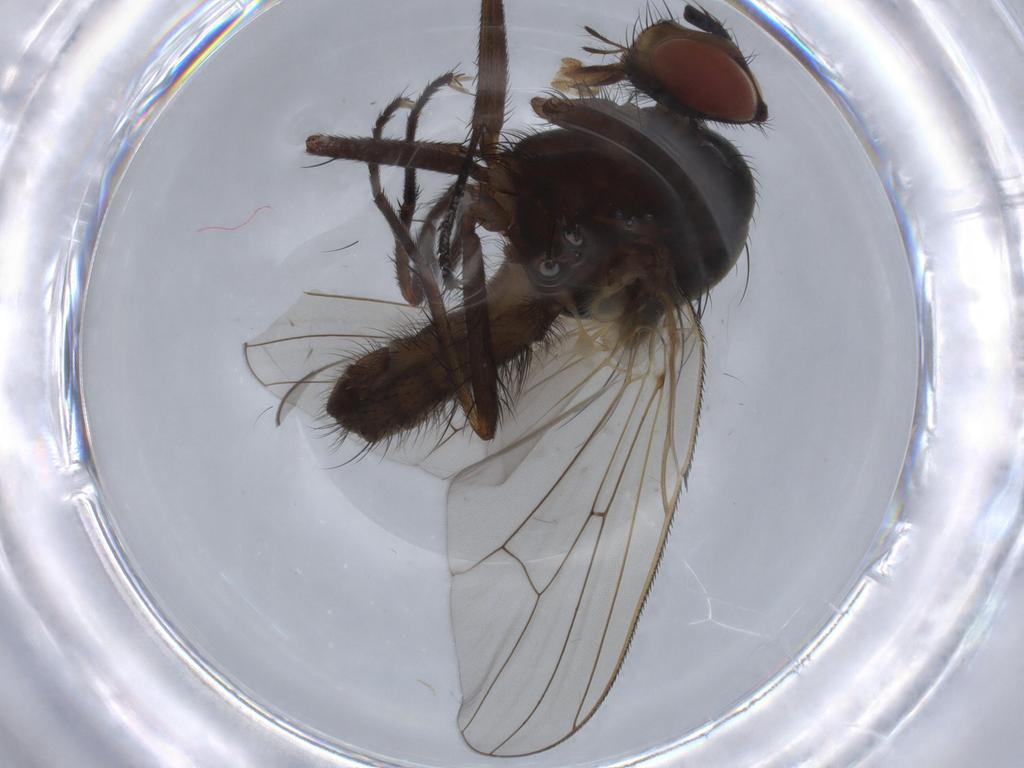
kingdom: Animalia
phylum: Arthropoda
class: Insecta
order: Diptera
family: Anthomyiidae
